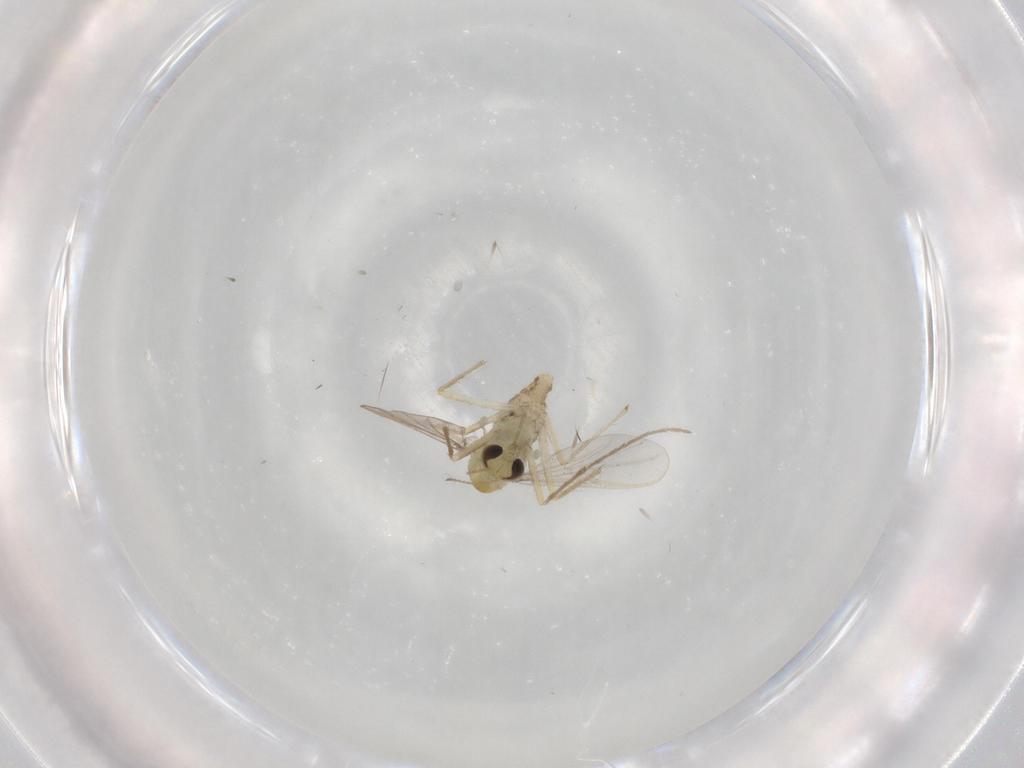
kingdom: Animalia
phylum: Arthropoda
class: Insecta
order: Diptera
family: Chironomidae
